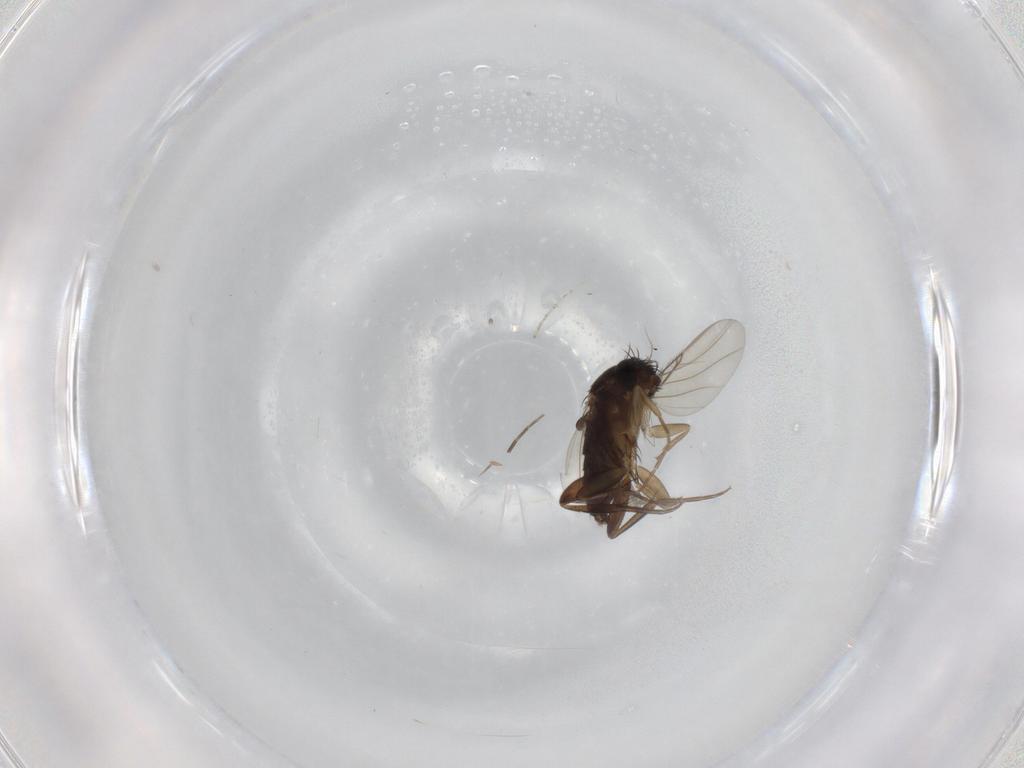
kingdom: Animalia
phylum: Arthropoda
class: Insecta
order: Diptera
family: Phoridae
